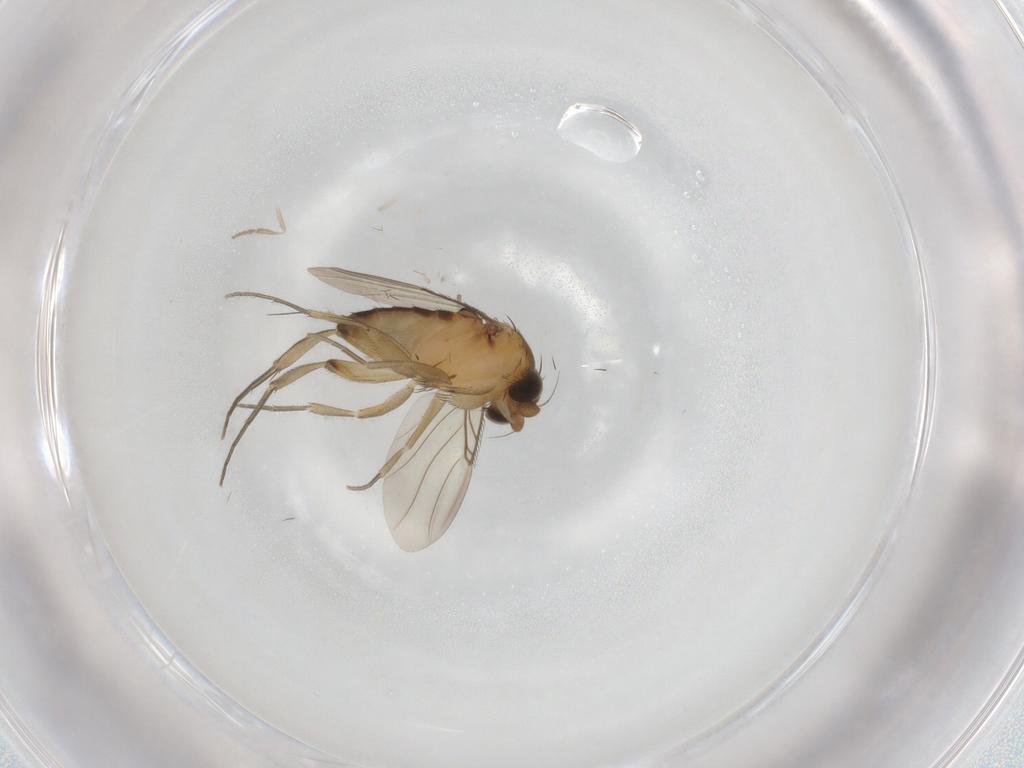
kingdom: Animalia
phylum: Arthropoda
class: Insecta
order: Diptera
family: Phoridae
